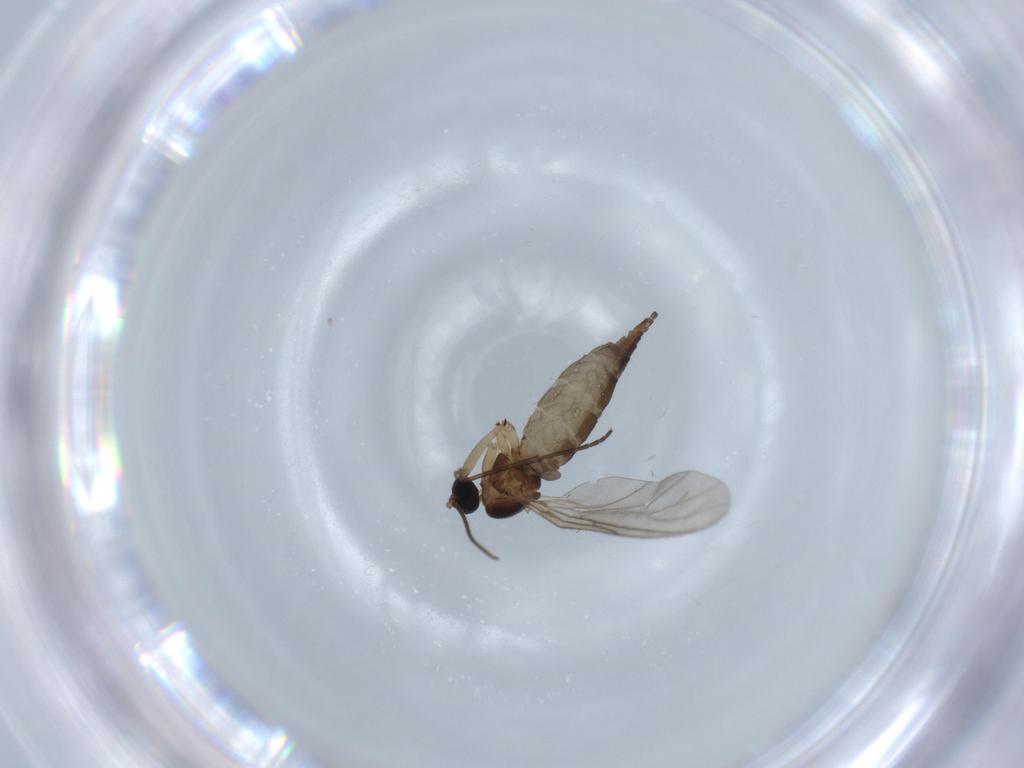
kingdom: Animalia
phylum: Arthropoda
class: Insecta
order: Diptera
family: Sciaridae
